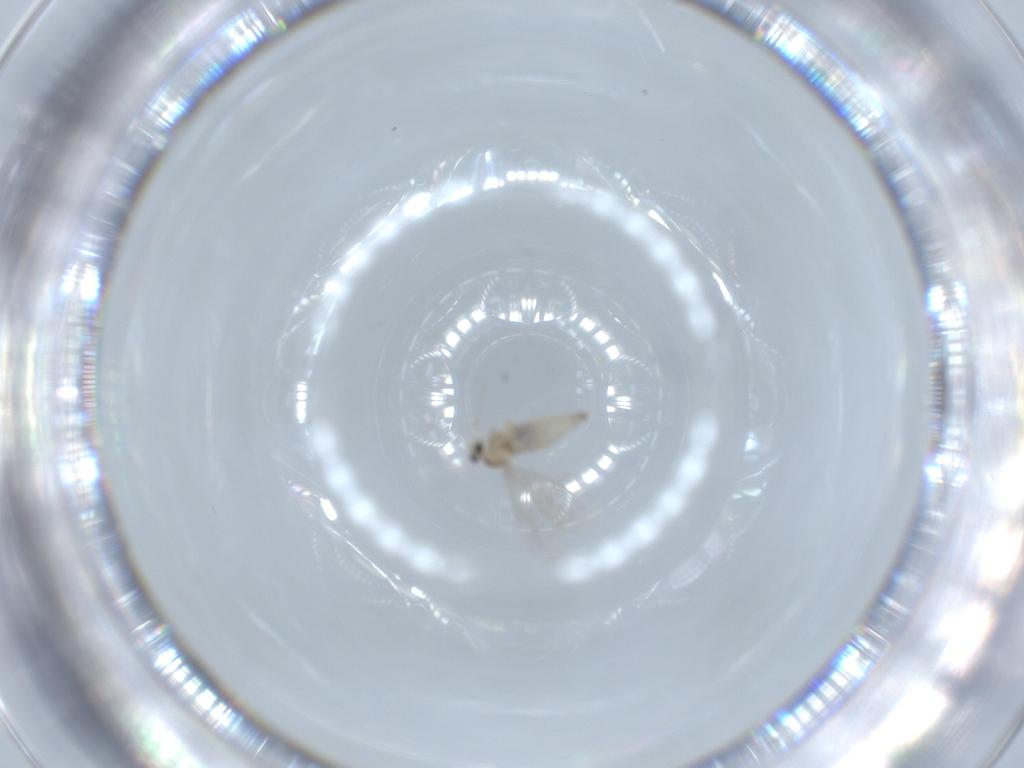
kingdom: Animalia
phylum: Arthropoda
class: Insecta
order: Diptera
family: Cecidomyiidae
